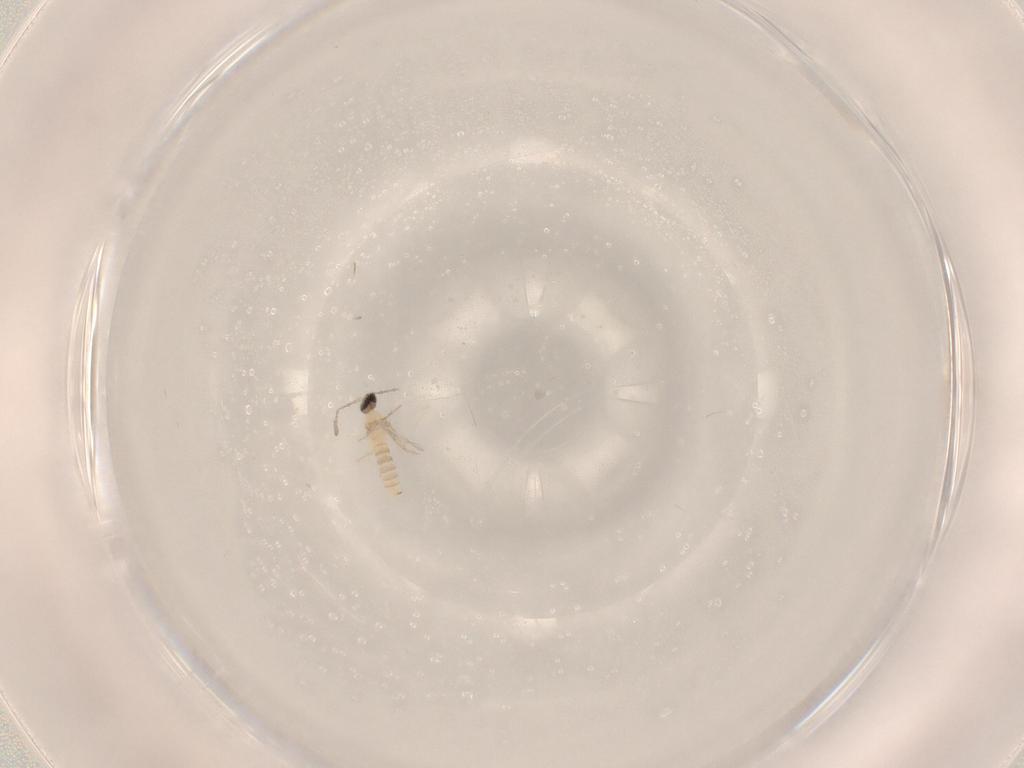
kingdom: Animalia
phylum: Arthropoda
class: Insecta
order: Diptera
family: Cecidomyiidae
